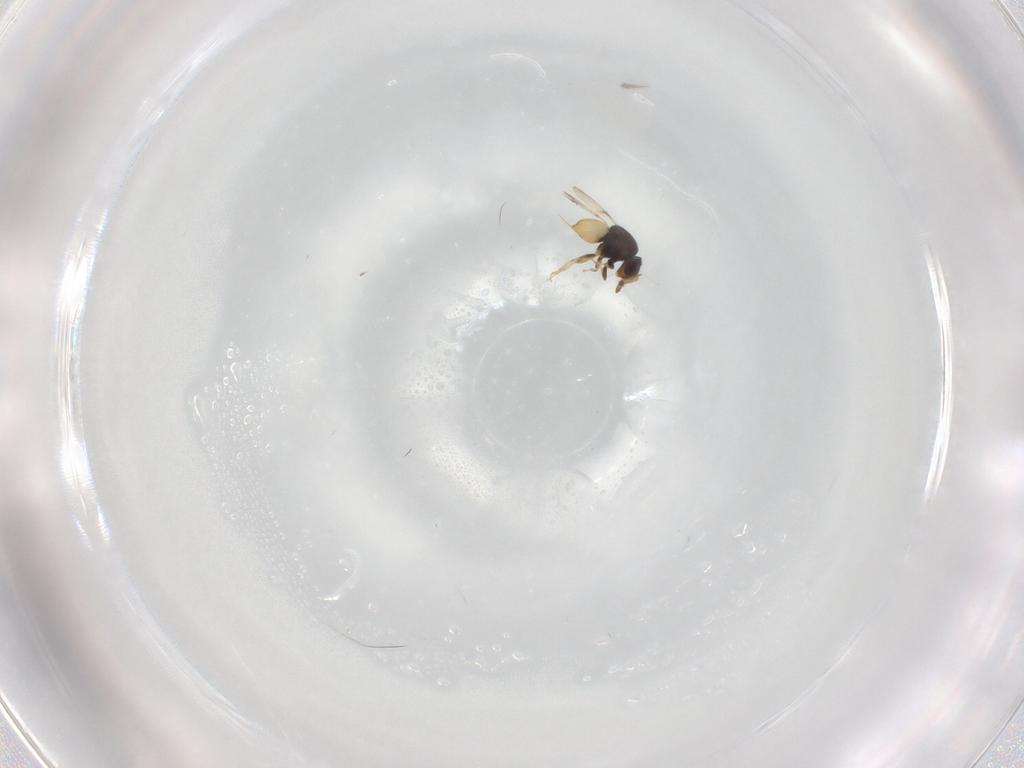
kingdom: Animalia
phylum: Arthropoda
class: Insecta
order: Hymenoptera
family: Ceraphronidae
